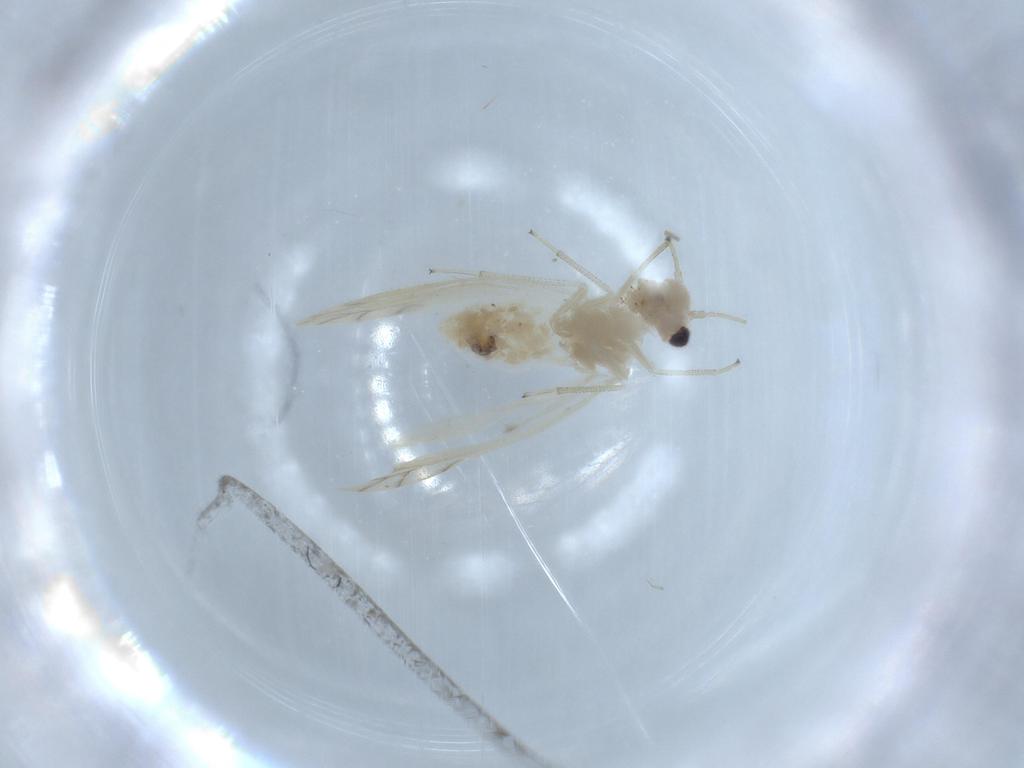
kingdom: Animalia
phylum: Arthropoda
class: Insecta
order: Psocodea
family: Caeciliusidae
